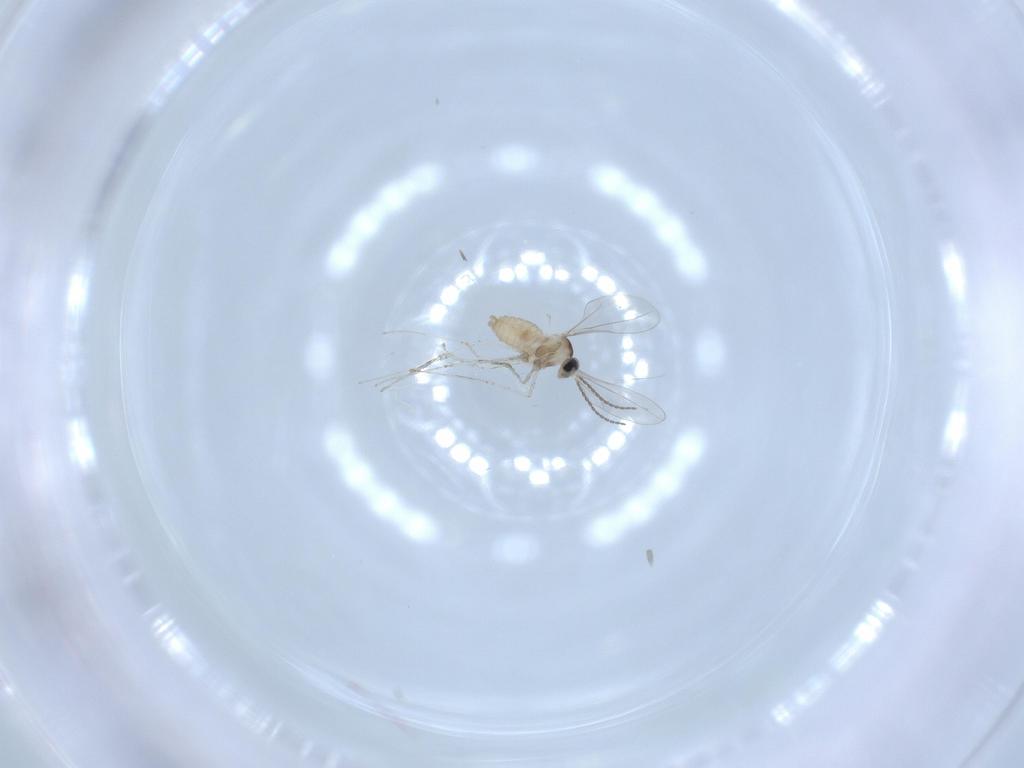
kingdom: Animalia
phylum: Arthropoda
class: Insecta
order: Diptera
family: Cecidomyiidae
